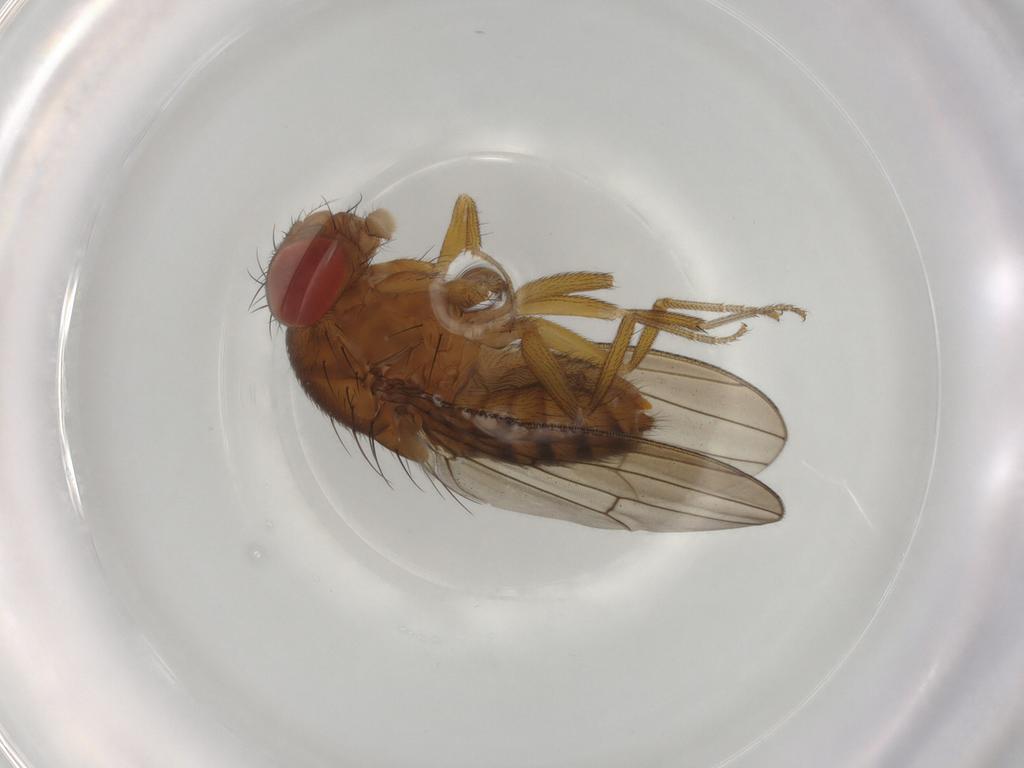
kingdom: Animalia
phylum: Arthropoda
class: Insecta
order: Diptera
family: Drosophilidae
